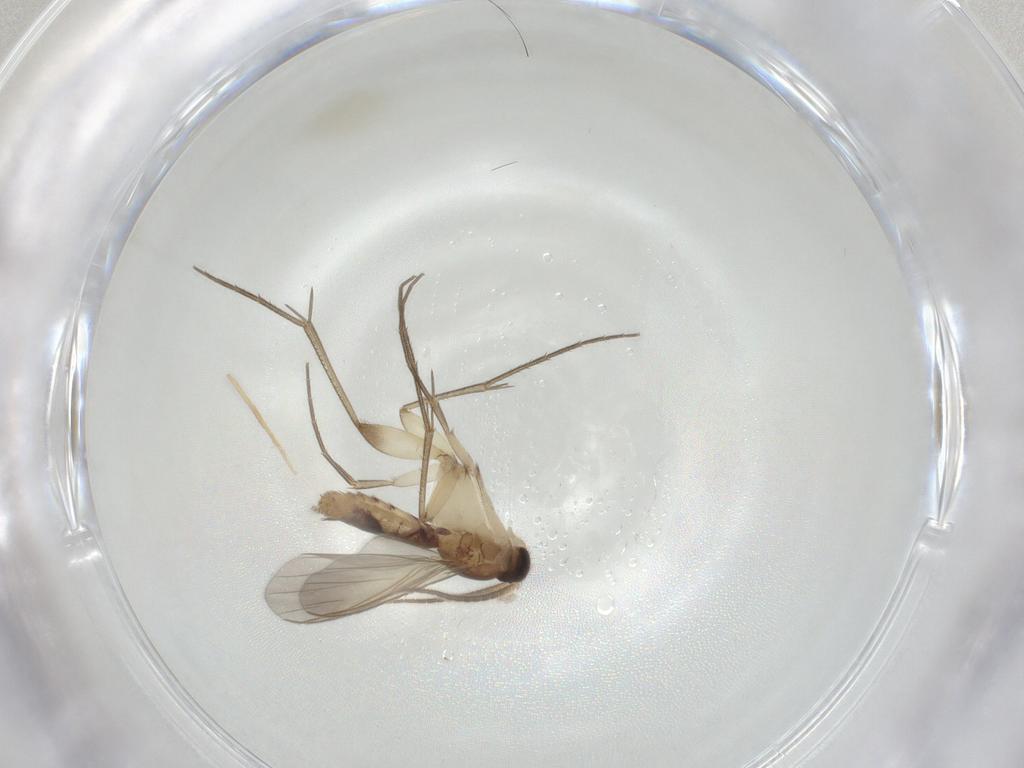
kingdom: Animalia
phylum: Arthropoda
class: Insecta
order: Diptera
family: Mycetophilidae
